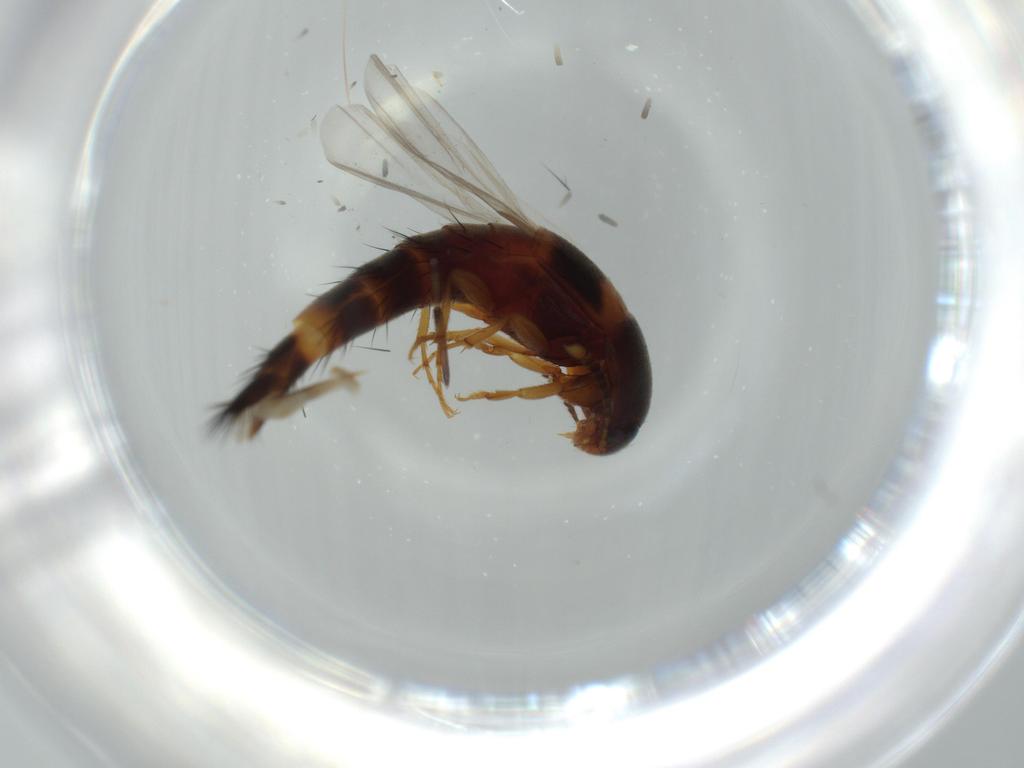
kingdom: Animalia
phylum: Arthropoda
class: Insecta
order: Coleoptera
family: Staphylinidae
